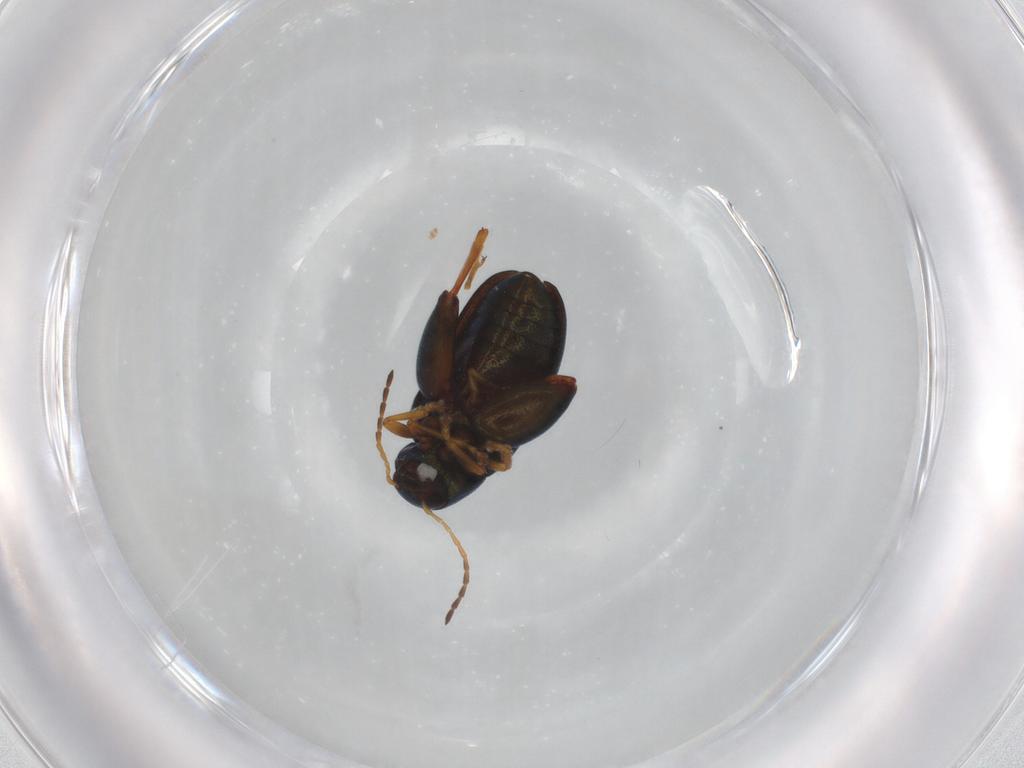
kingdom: Animalia
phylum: Arthropoda
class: Insecta
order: Coleoptera
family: Chrysomelidae
